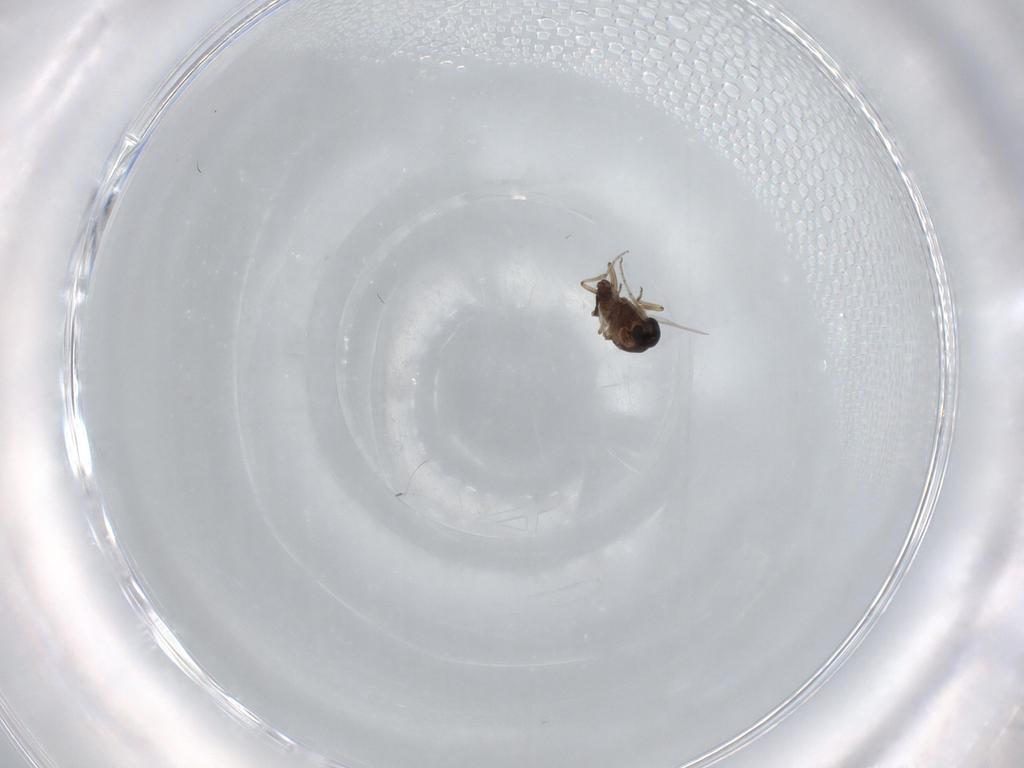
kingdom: Animalia
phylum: Arthropoda
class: Insecta
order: Diptera
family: Ceratopogonidae
